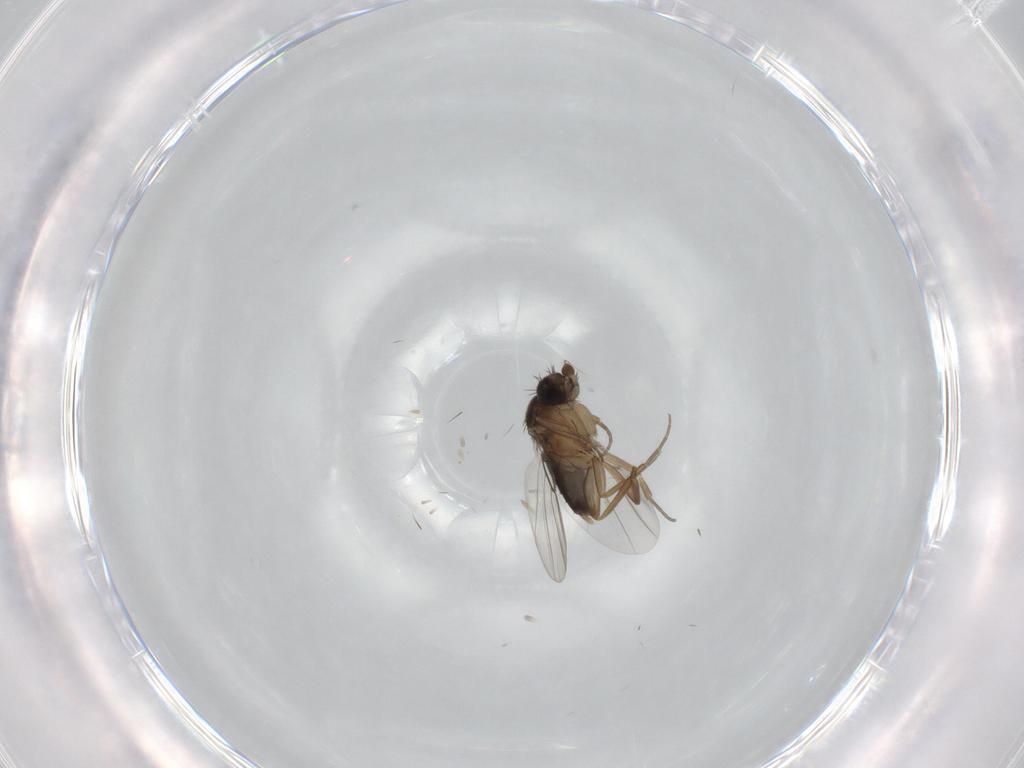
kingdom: Animalia
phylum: Arthropoda
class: Insecta
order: Diptera
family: Phoridae
